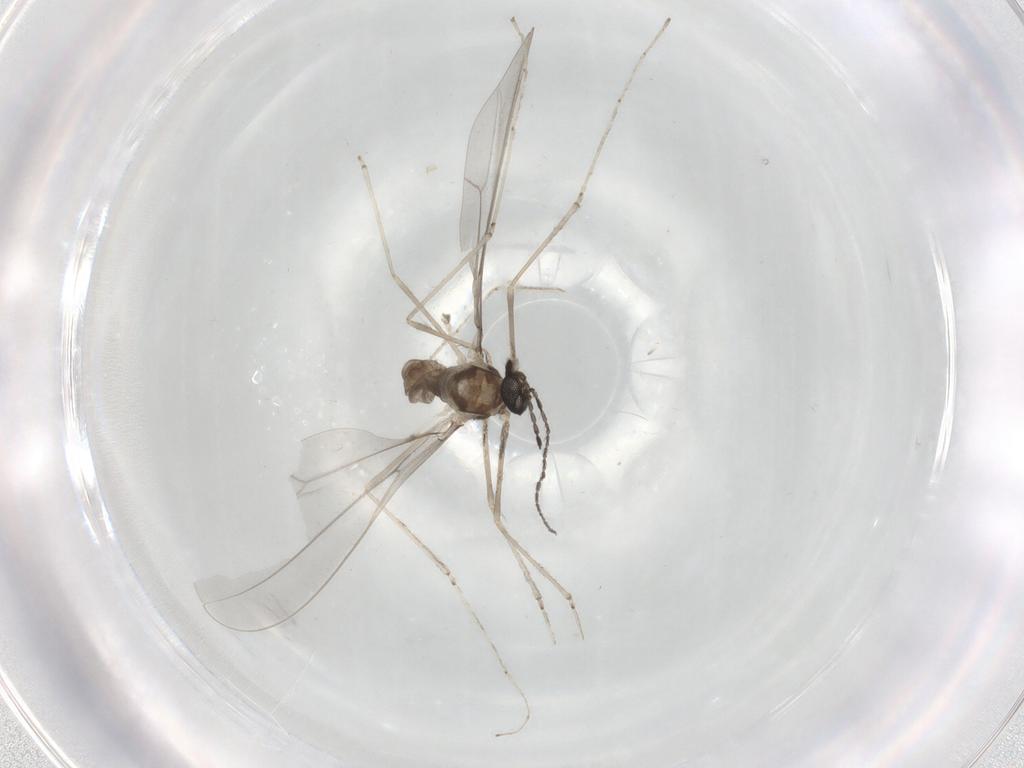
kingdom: Animalia
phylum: Arthropoda
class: Insecta
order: Diptera
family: Cecidomyiidae
